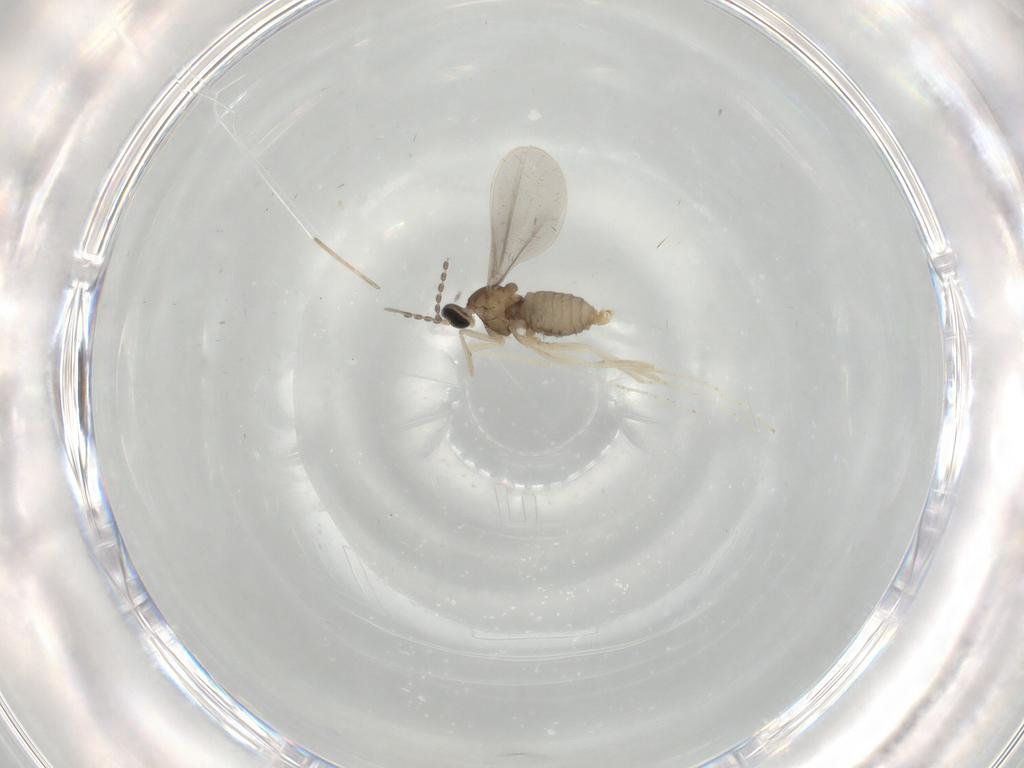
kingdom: Animalia
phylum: Arthropoda
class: Insecta
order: Diptera
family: Cecidomyiidae
